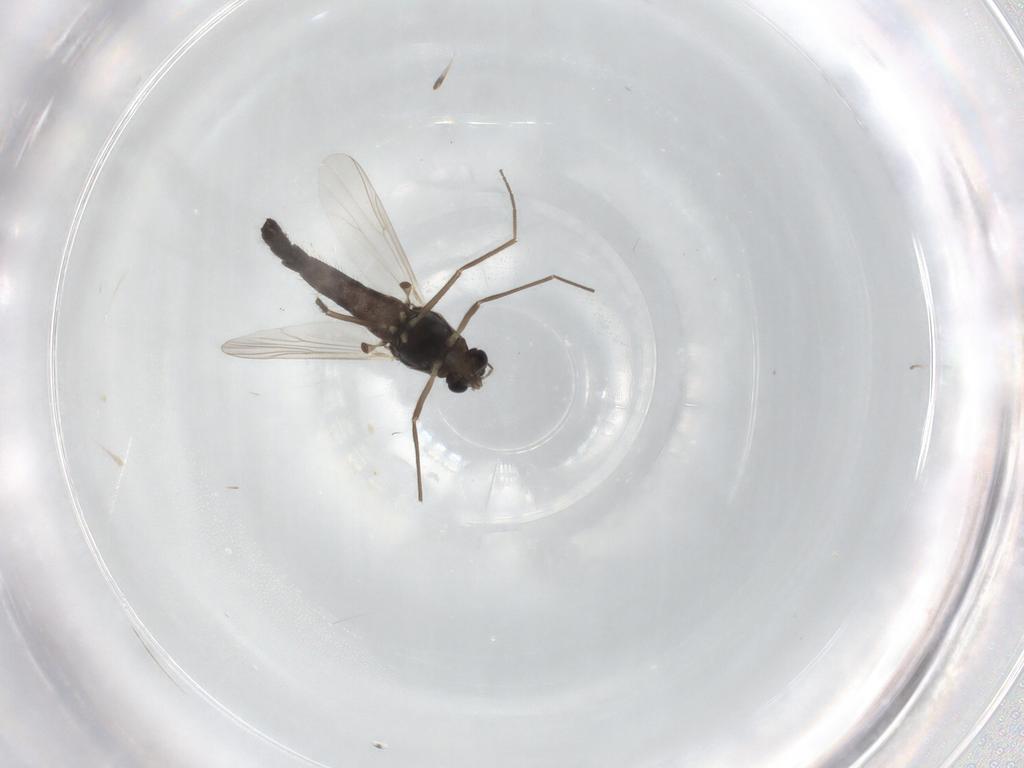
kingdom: Animalia
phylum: Arthropoda
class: Insecta
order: Diptera
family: Chironomidae
